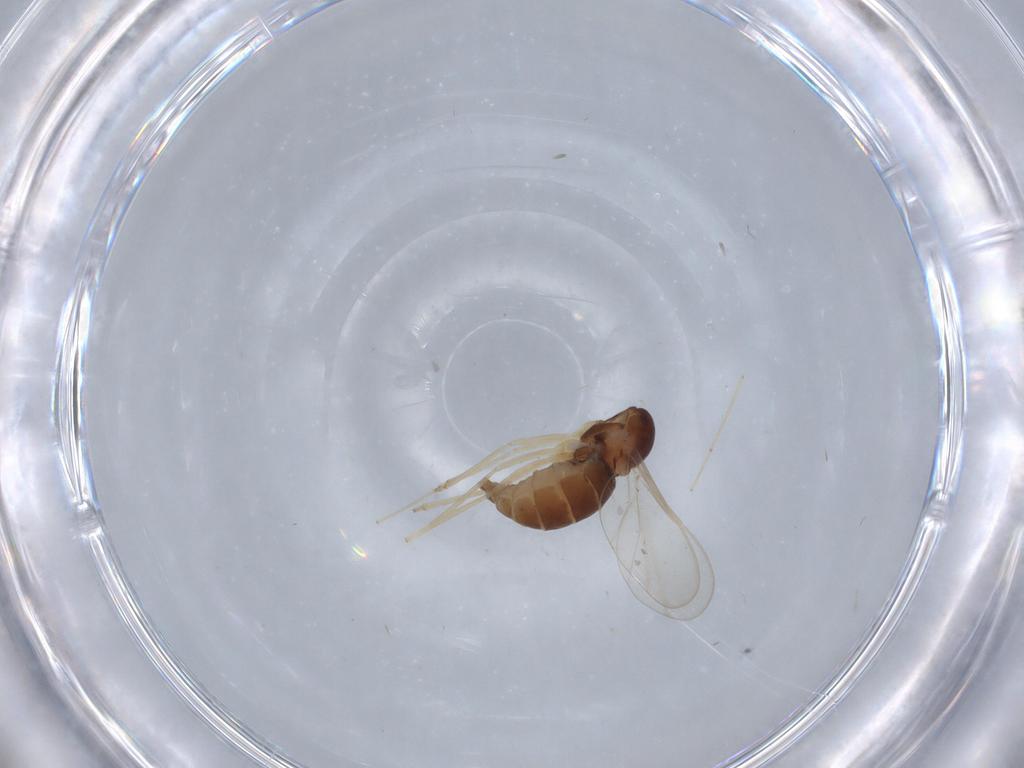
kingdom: Animalia
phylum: Arthropoda
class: Insecta
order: Diptera
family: Cecidomyiidae
